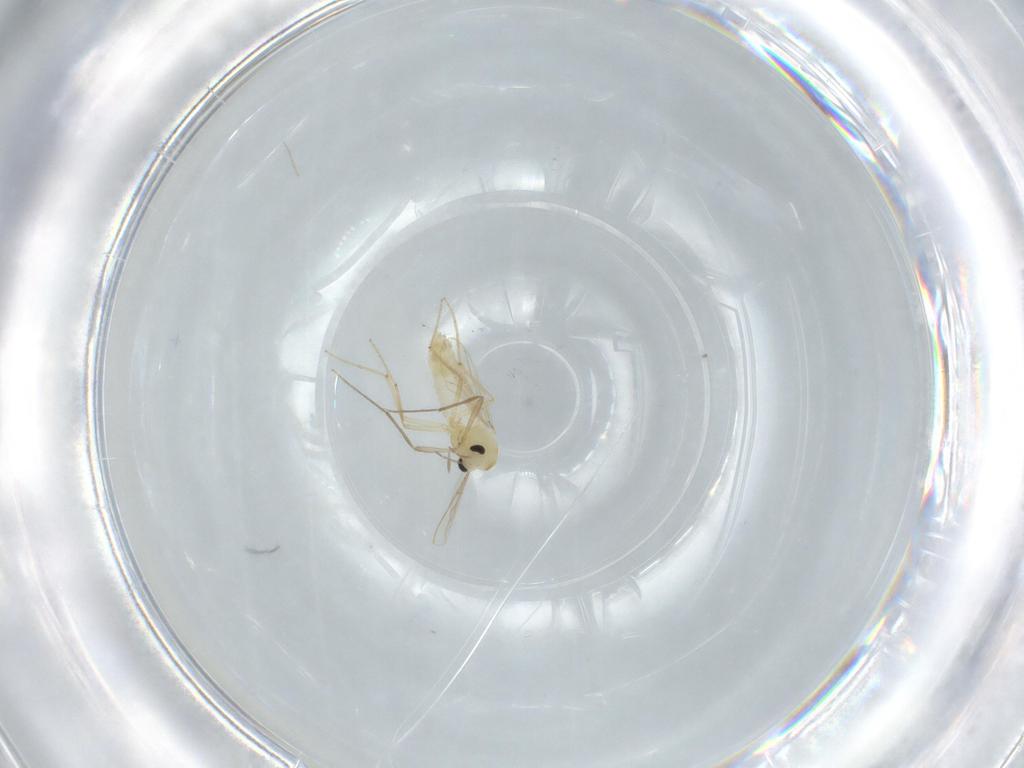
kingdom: Animalia
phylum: Arthropoda
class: Insecta
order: Diptera
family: Chironomidae
